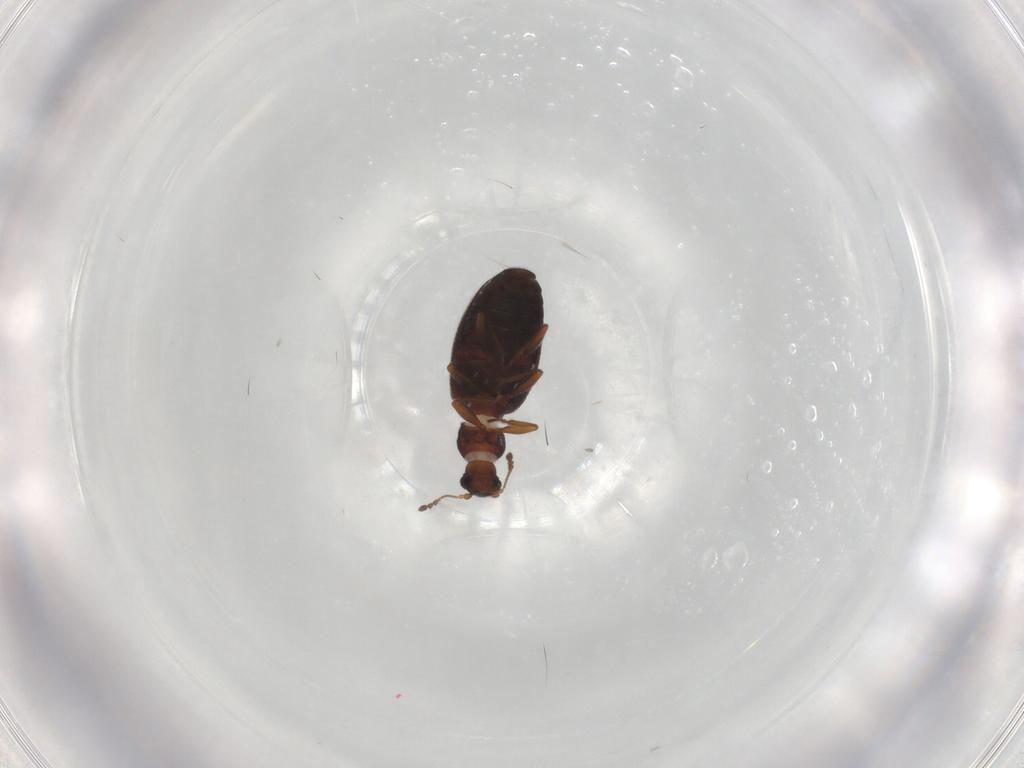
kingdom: Animalia
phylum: Arthropoda
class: Insecta
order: Coleoptera
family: Latridiidae
